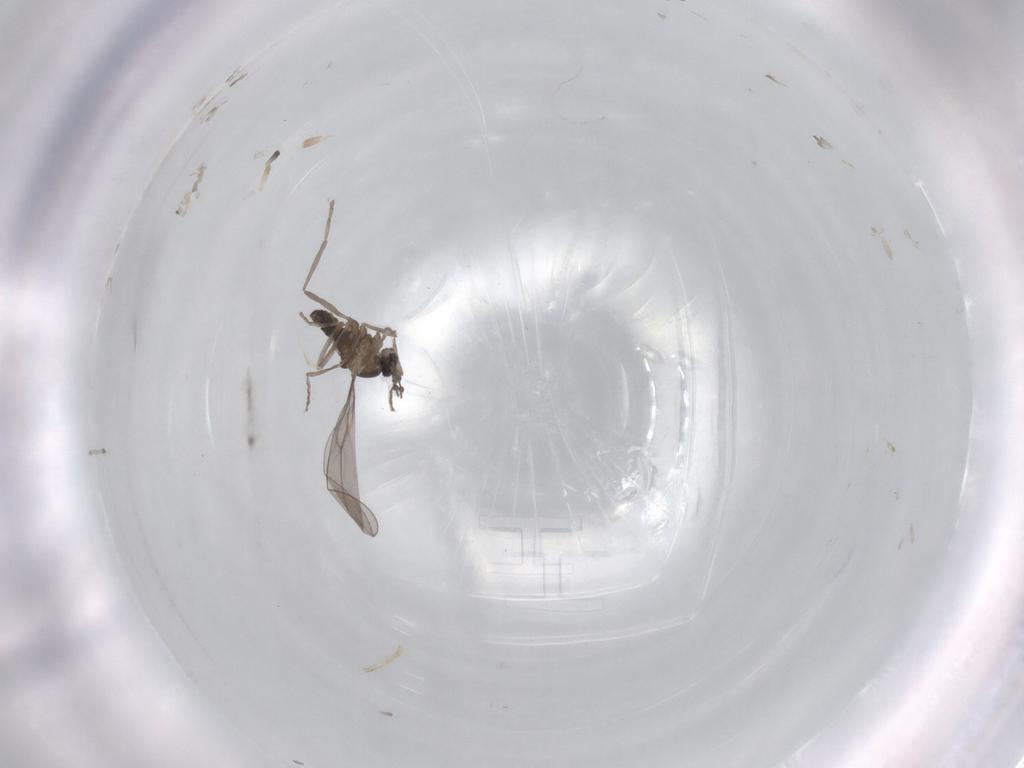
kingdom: Animalia
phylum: Arthropoda
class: Insecta
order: Diptera
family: Cecidomyiidae
